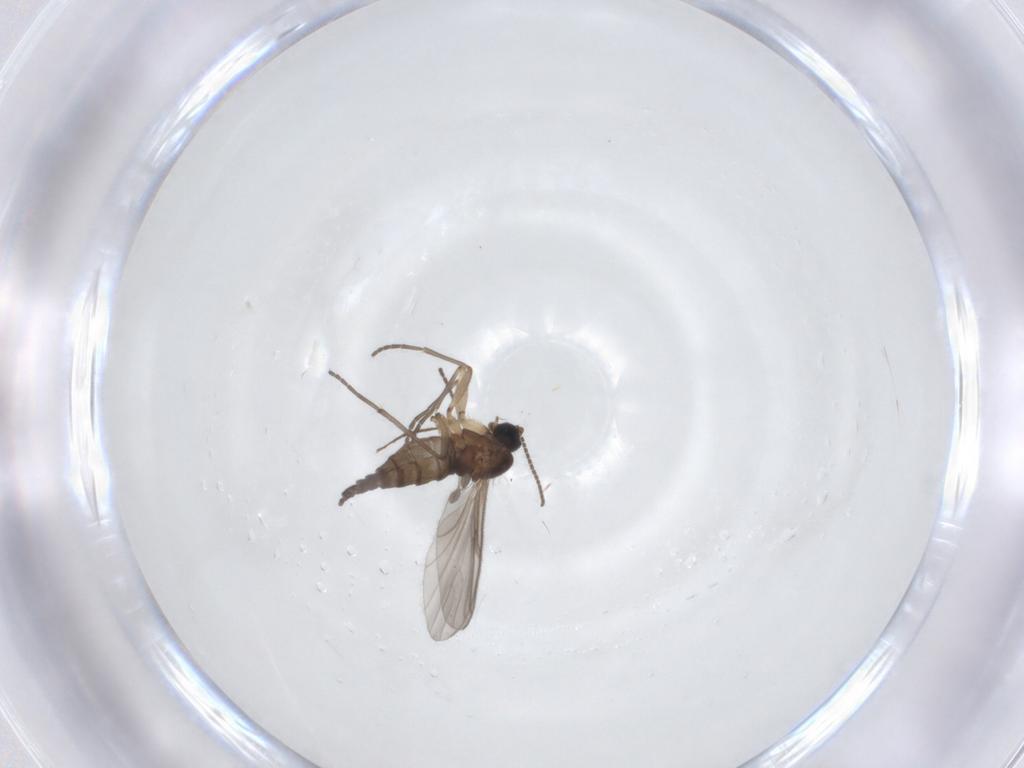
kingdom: Animalia
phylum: Arthropoda
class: Insecta
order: Diptera
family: Sciaridae
